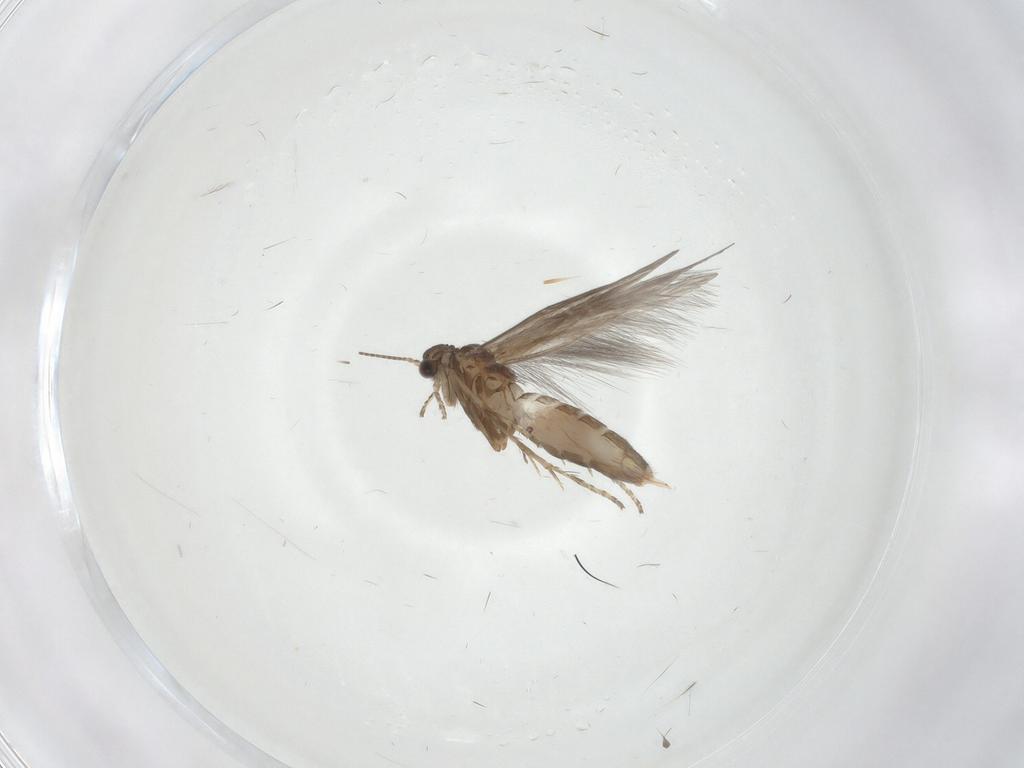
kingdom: Animalia
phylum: Arthropoda
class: Insecta
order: Trichoptera
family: Hydroptilidae
